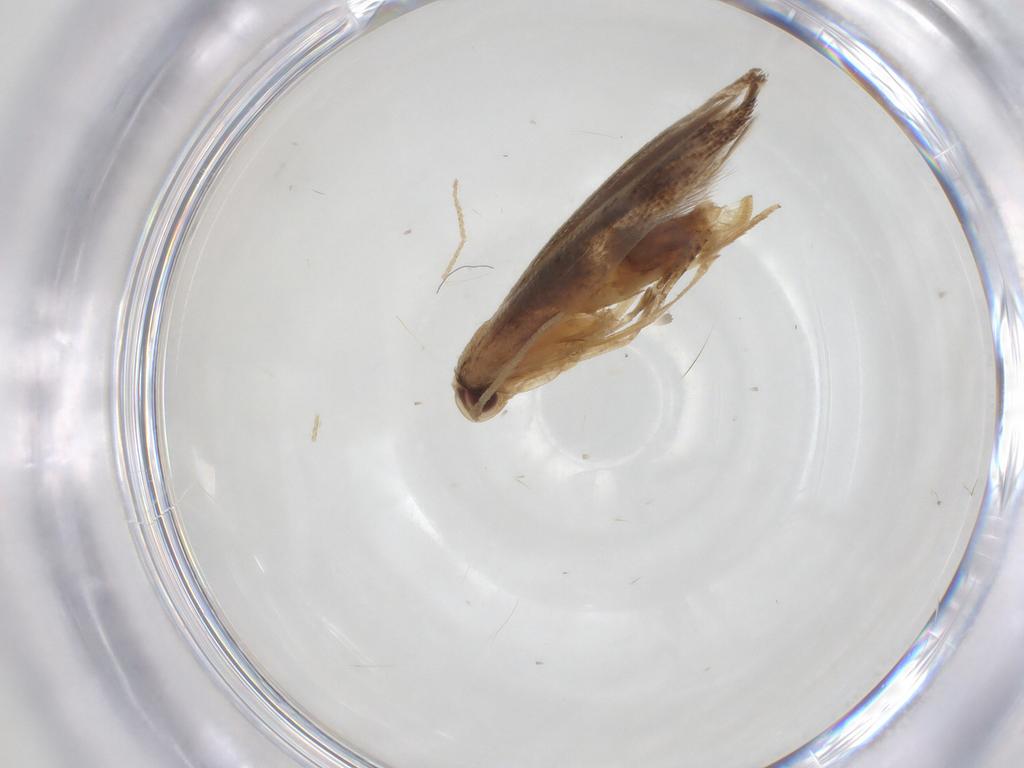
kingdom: Animalia
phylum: Arthropoda
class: Insecta
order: Lepidoptera
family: Cosmopterigidae
